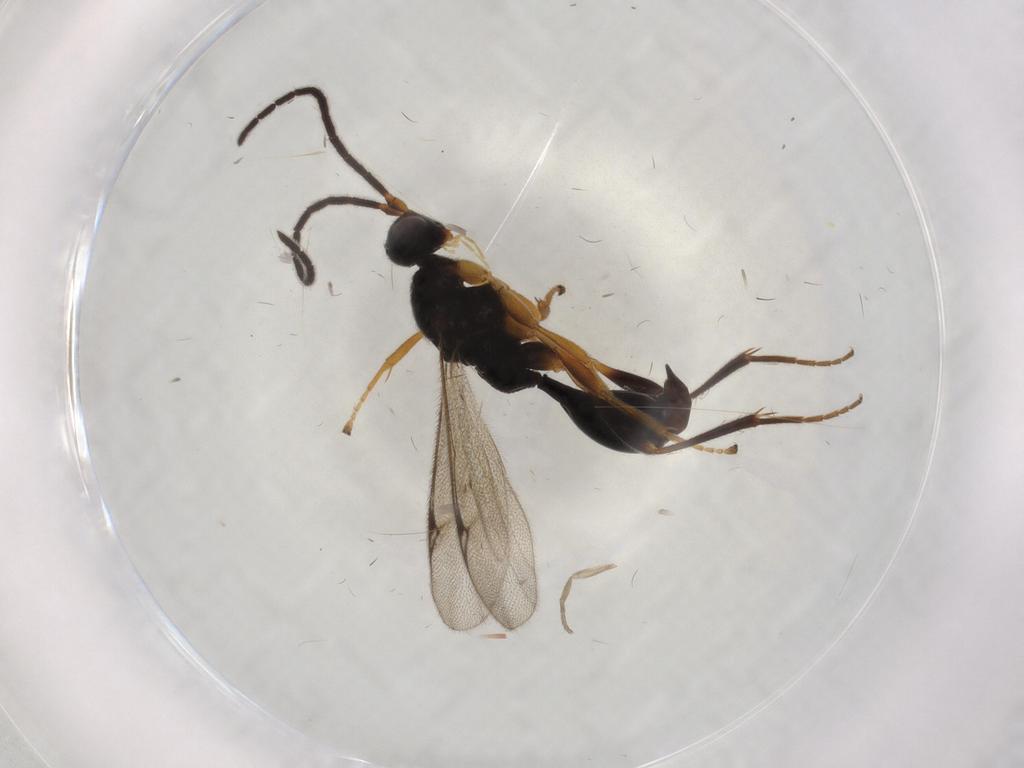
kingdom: Animalia
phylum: Arthropoda
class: Insecta
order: Hymenoptera
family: Proctotrupidae
